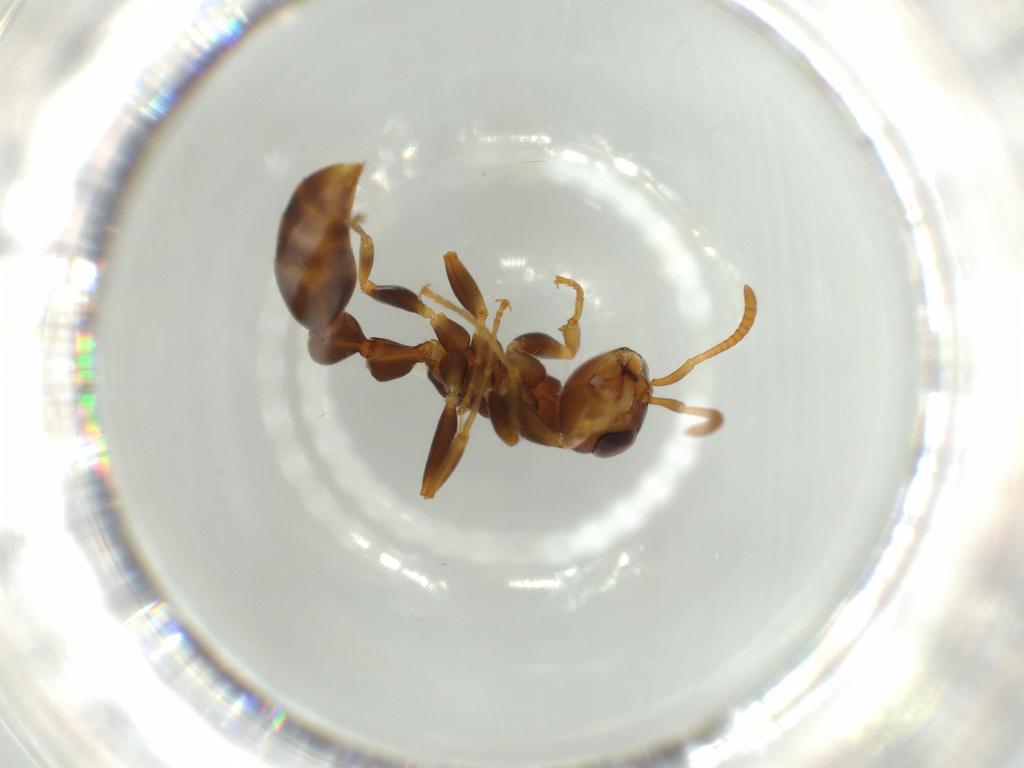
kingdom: Animalia
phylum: Arthropoda
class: Insecta
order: Hymenoptera
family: Formicidae
